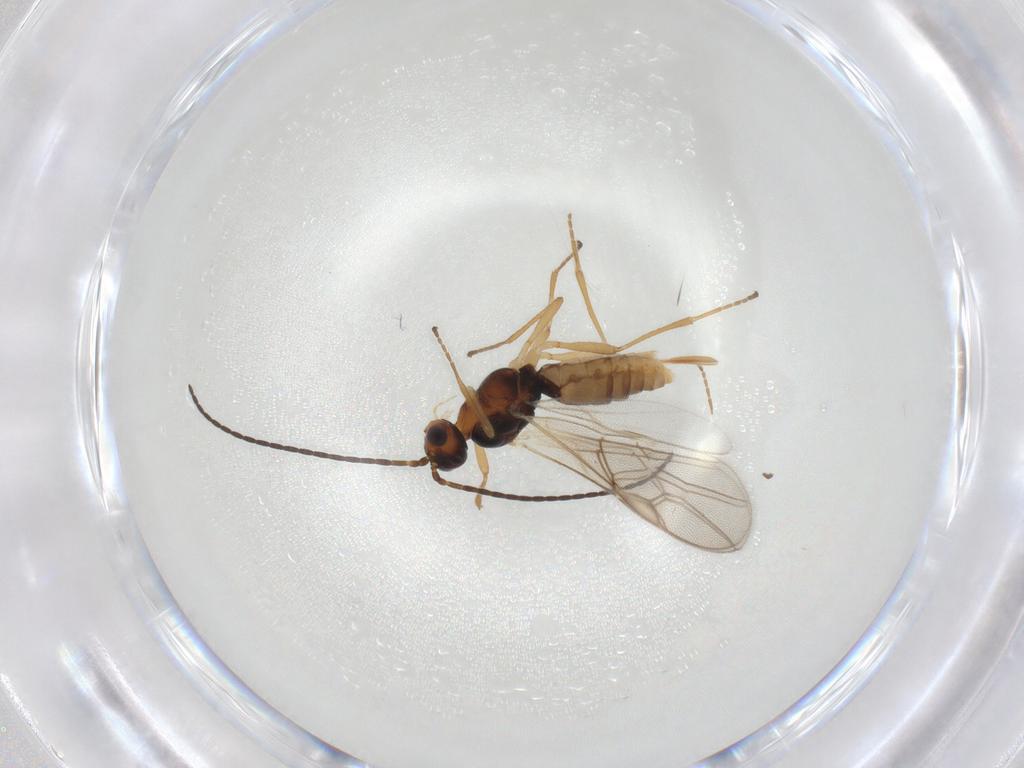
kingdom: Animalia
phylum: Arthropoda
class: Insecta
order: Hymenoptera
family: Braconidae
